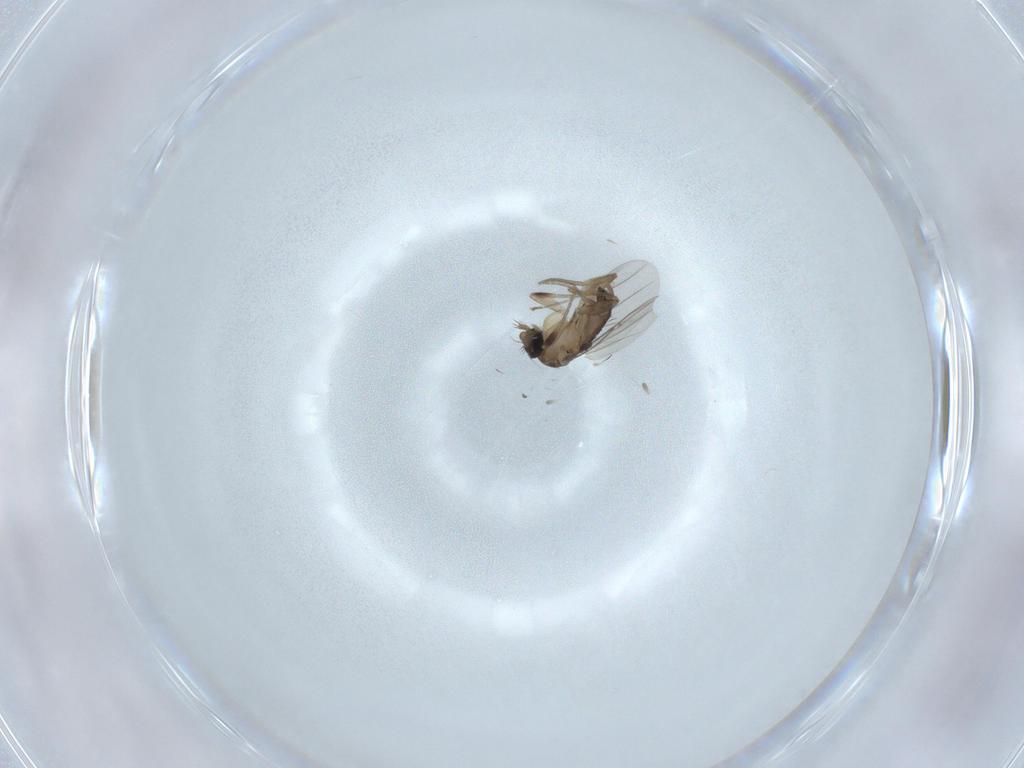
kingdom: Animalia
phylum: Arthropoda
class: Insecta
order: Diptera
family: Phoridae
